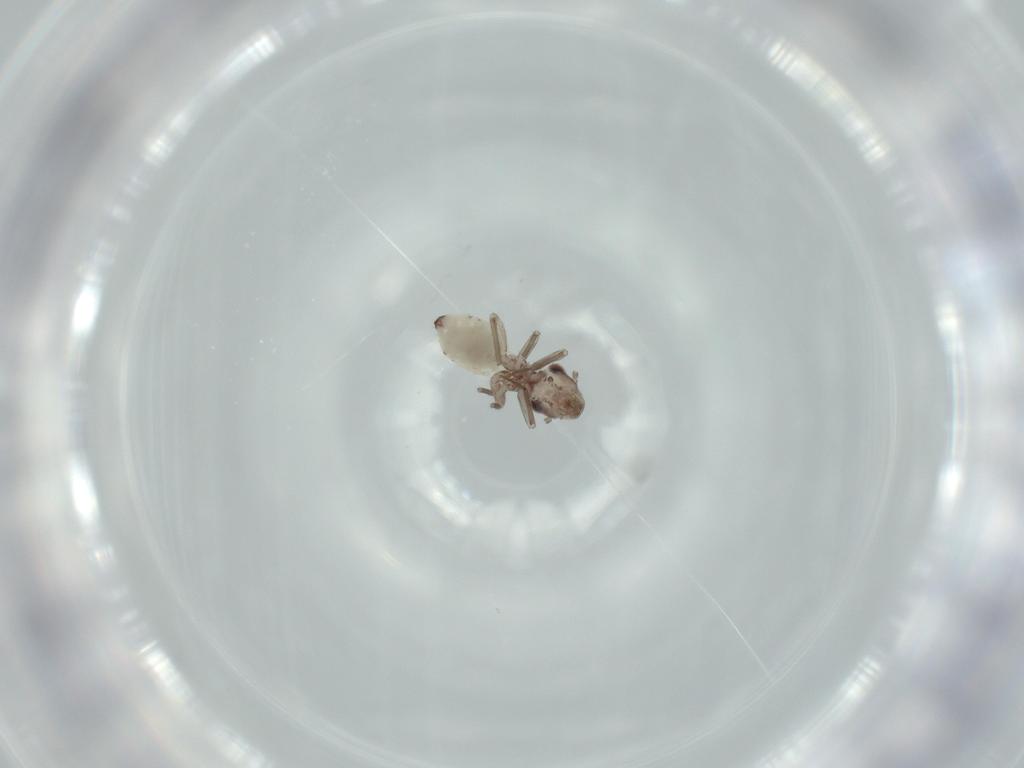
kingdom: Animalia
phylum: Arthropoda
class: Insecta
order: Psocodea
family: Lepidopsocidae
